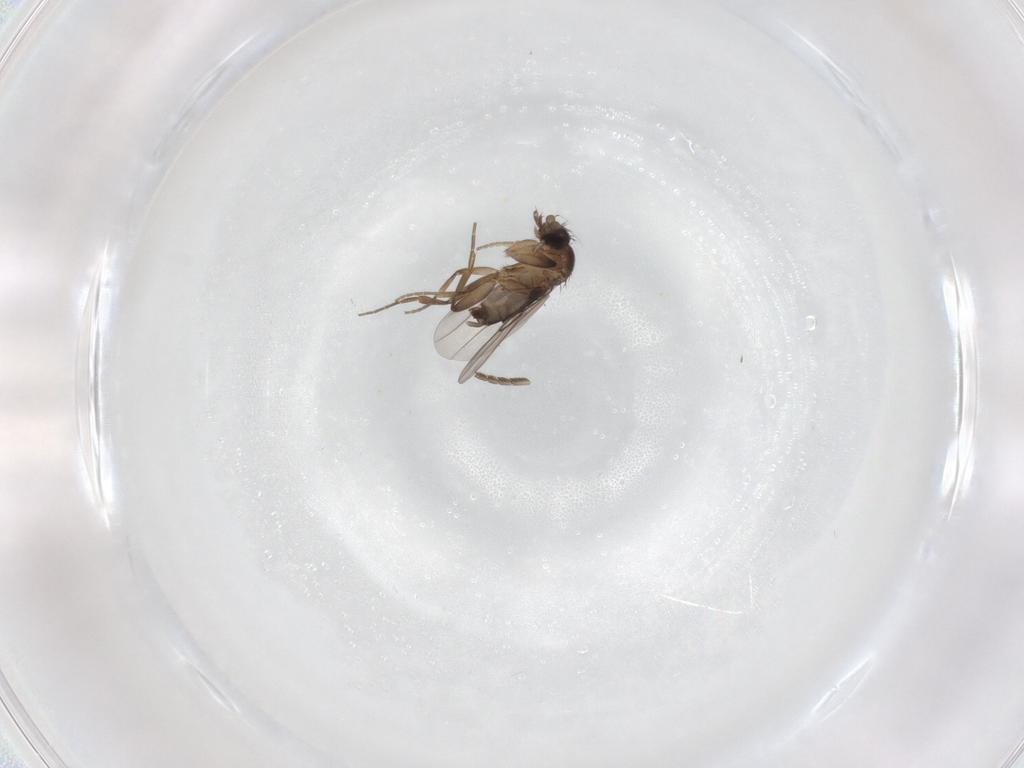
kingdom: Animalia
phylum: Arthropoda
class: Insecta
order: Diptera
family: Psychodidae
